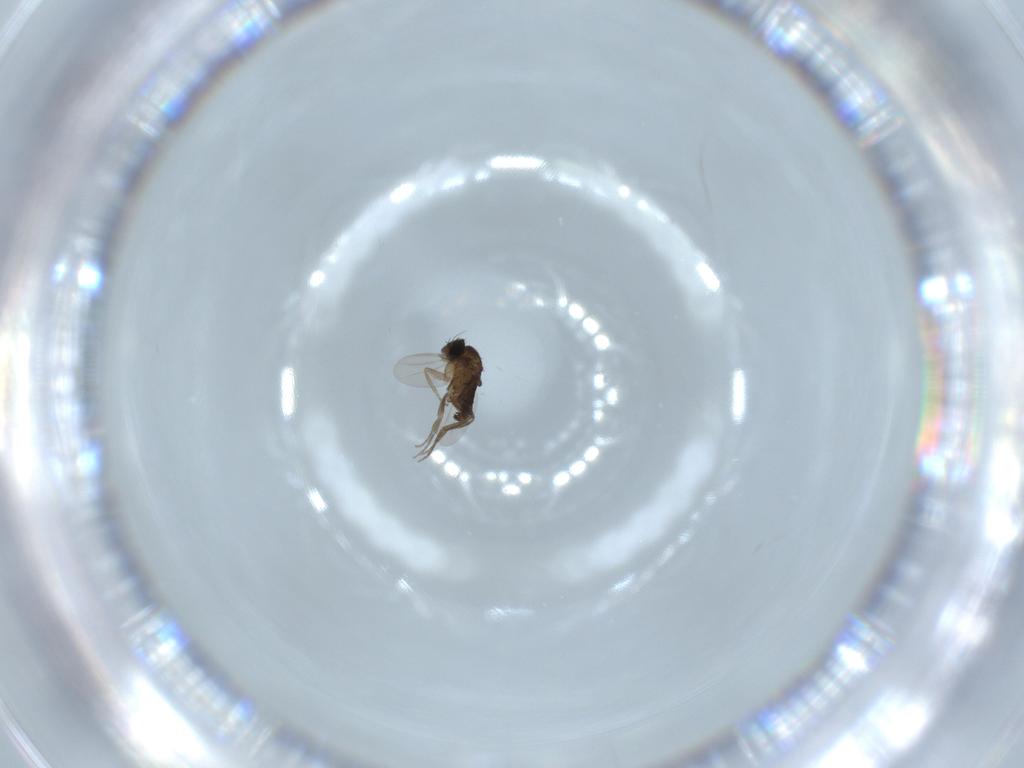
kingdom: Animalia
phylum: Arthropoda
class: Insecta
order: Diptera
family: Phoridae
